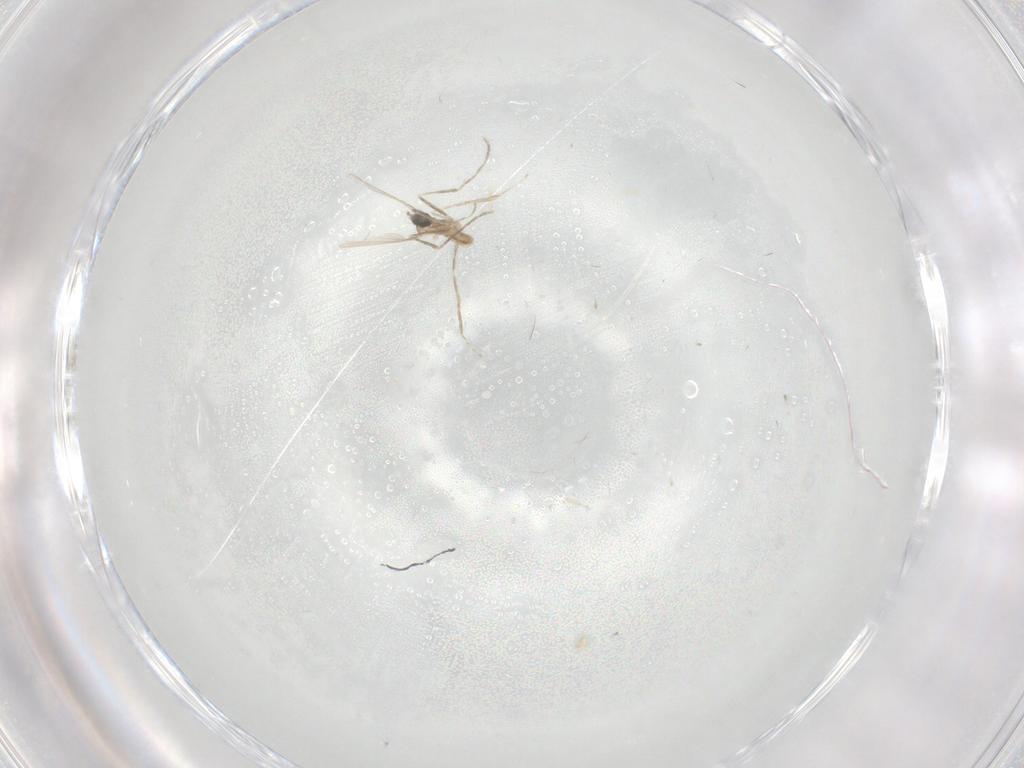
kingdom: Animalia
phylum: Arthropoda
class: Insecta
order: Diptera
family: Cecidomyiidae
